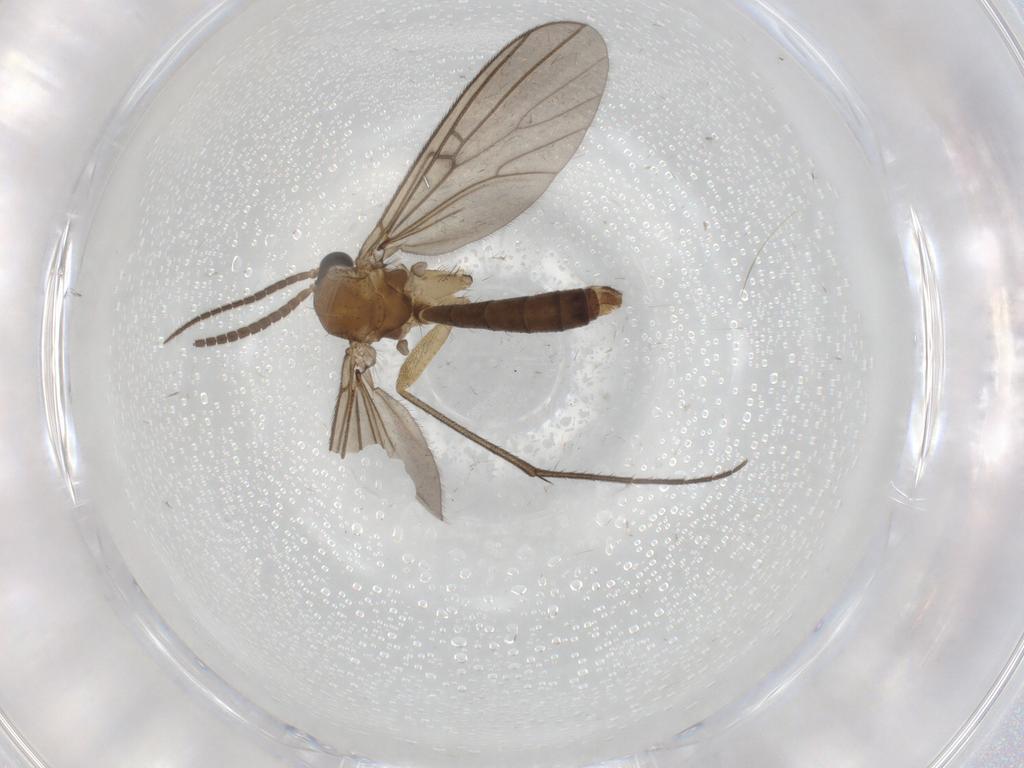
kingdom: Animalia
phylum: Arthropoda
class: Insecta
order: Diptera
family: Mycetophilidae
